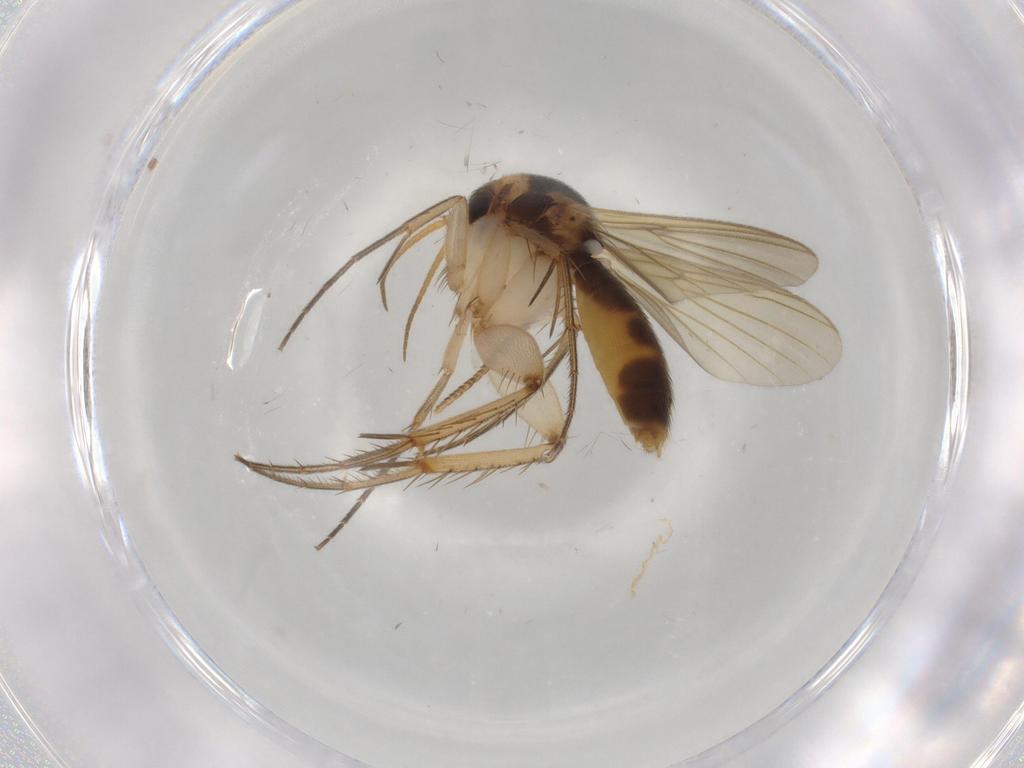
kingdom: Animalia
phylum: Arthropoda
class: Insecta
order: Diptera
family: Mycetophilidae
